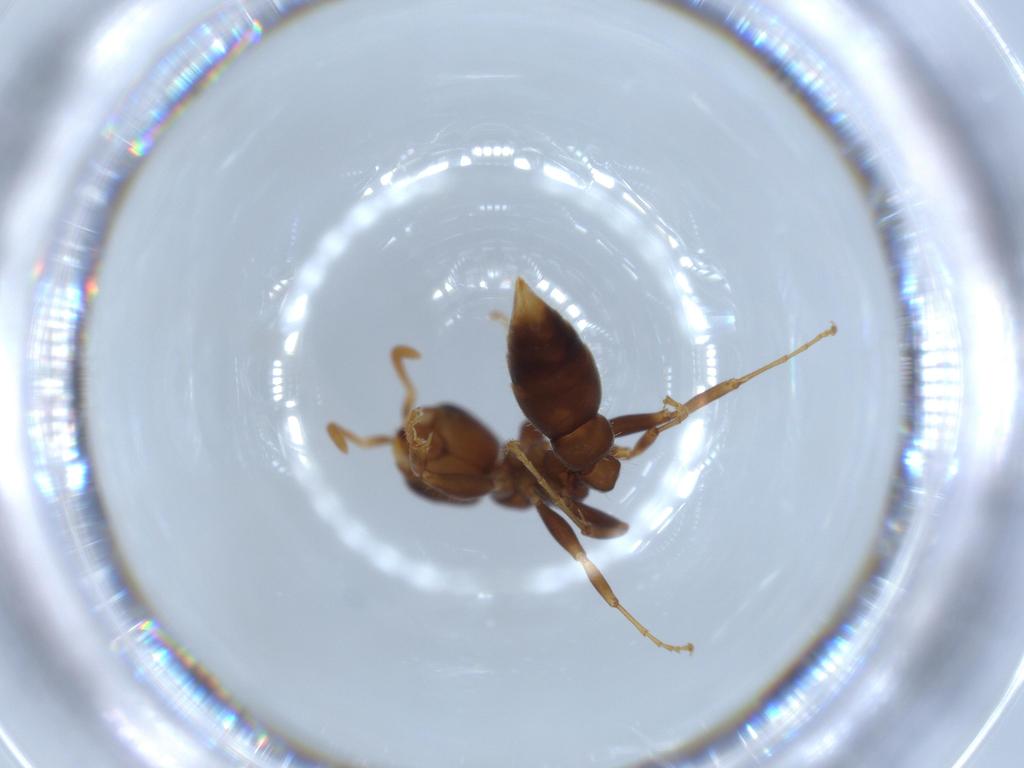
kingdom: Animalia
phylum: Arthropoda
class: Insecta
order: Hymenoptera
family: Formicidae
